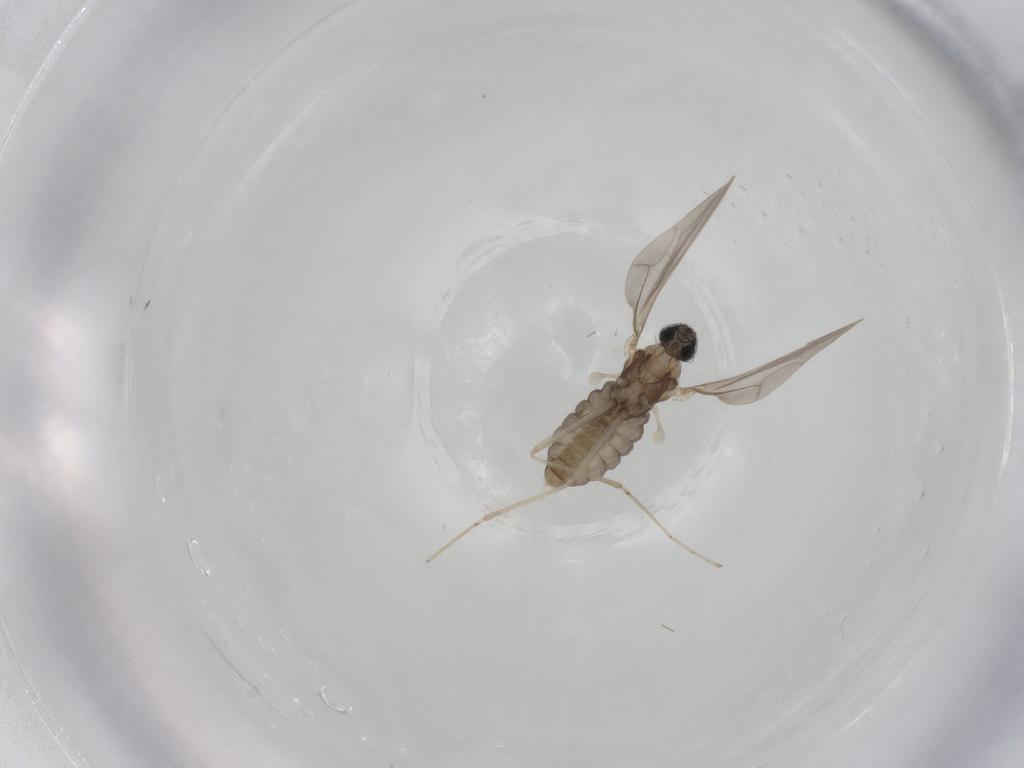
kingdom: Animalia
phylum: Arthropoda
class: Insecta
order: Diptera
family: Cecidomyiidae
